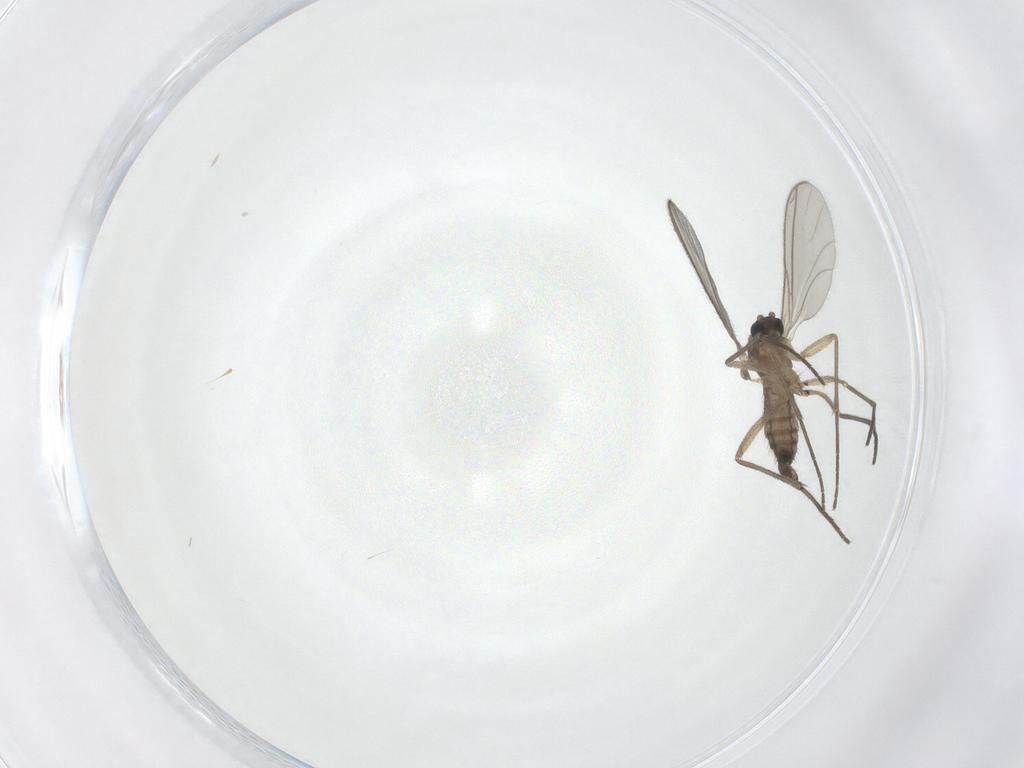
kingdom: Animalia
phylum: Arthropoda
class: Insecta
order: Diptera
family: Sciaridae
